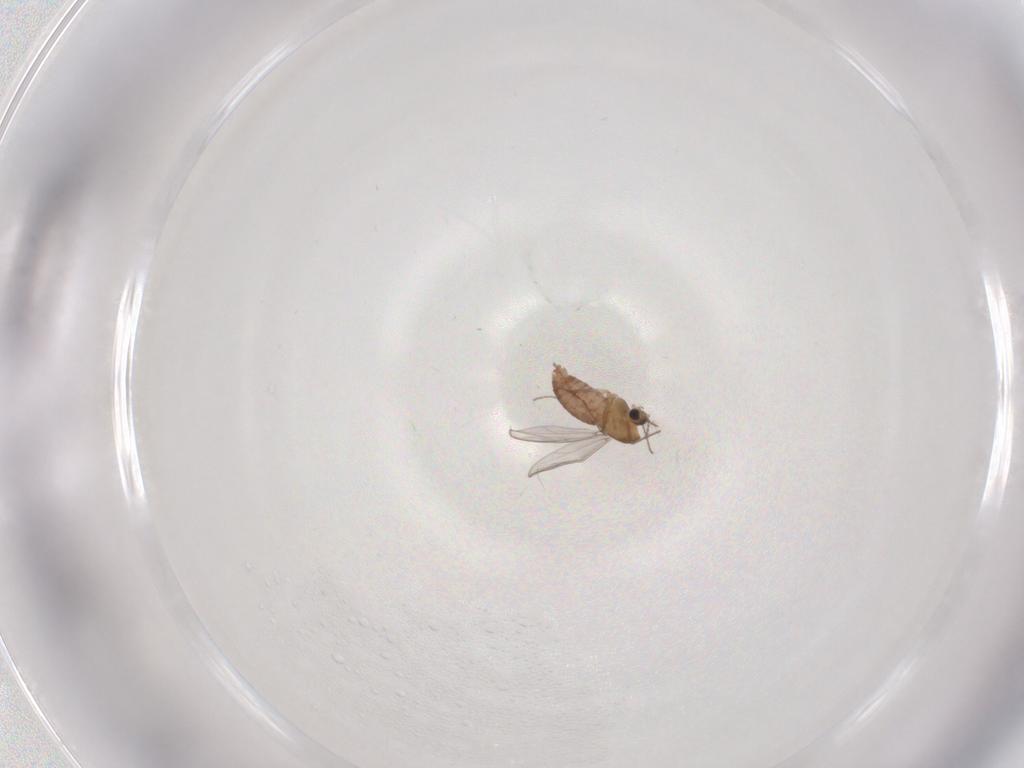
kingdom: Animalia
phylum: Arthropoda
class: Insecta
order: Diptera
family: Chironomidae
